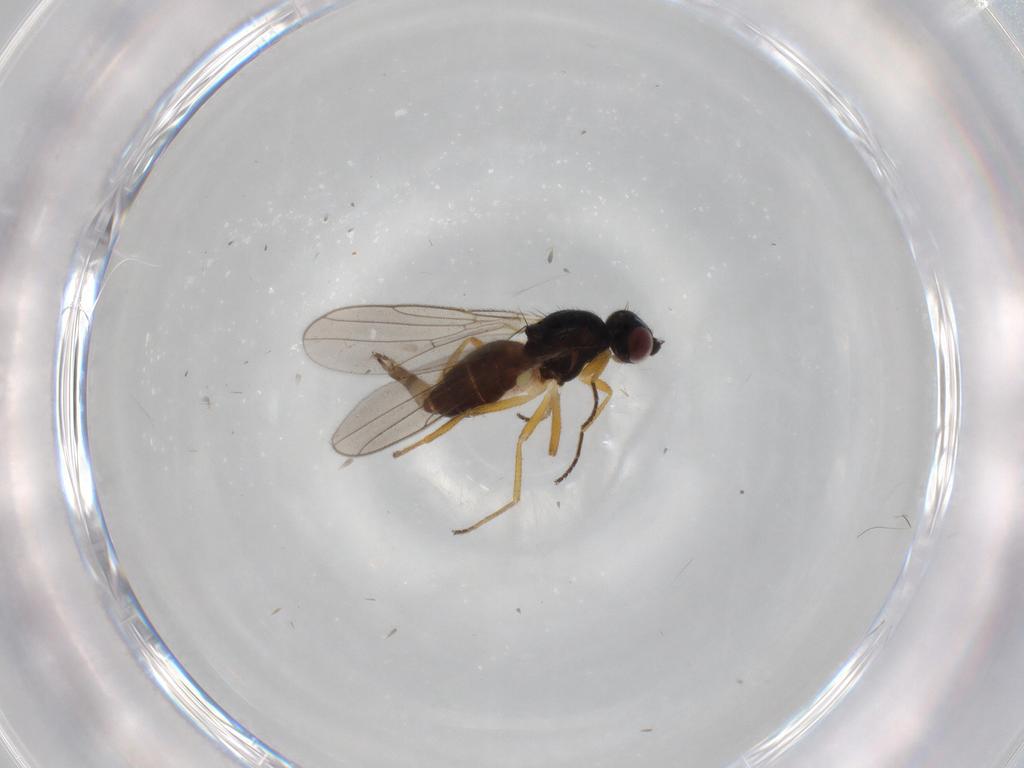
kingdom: Animalia
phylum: Arthropoda
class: Insecta
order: Diptera
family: Chloropidae
